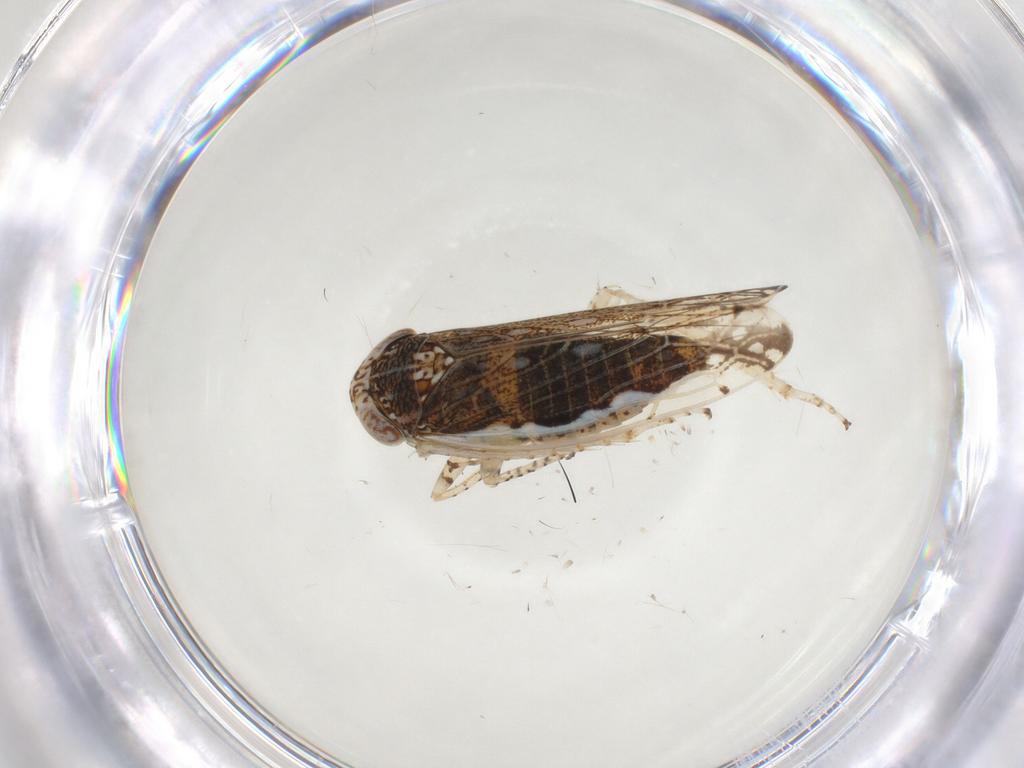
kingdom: Animalia
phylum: Arthropoda
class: Insecta
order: Hemiptera
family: Cicadellidae
